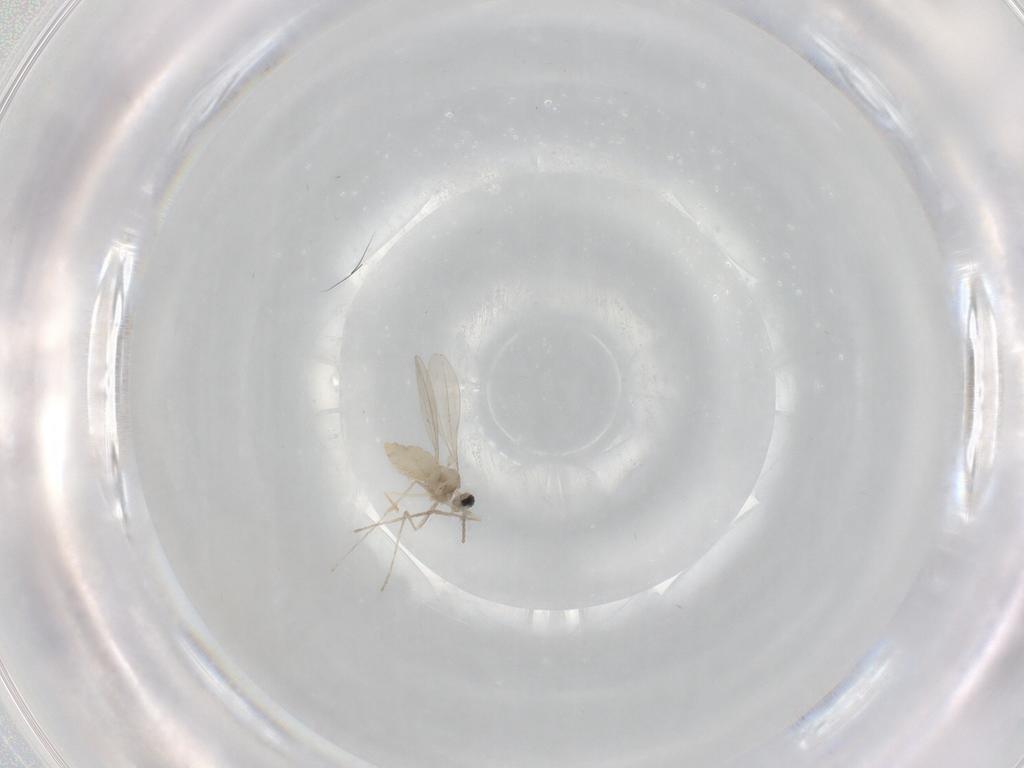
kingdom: Animalia
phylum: Arthropoda
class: Insecta
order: Diptera
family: Cecidomyiidae
